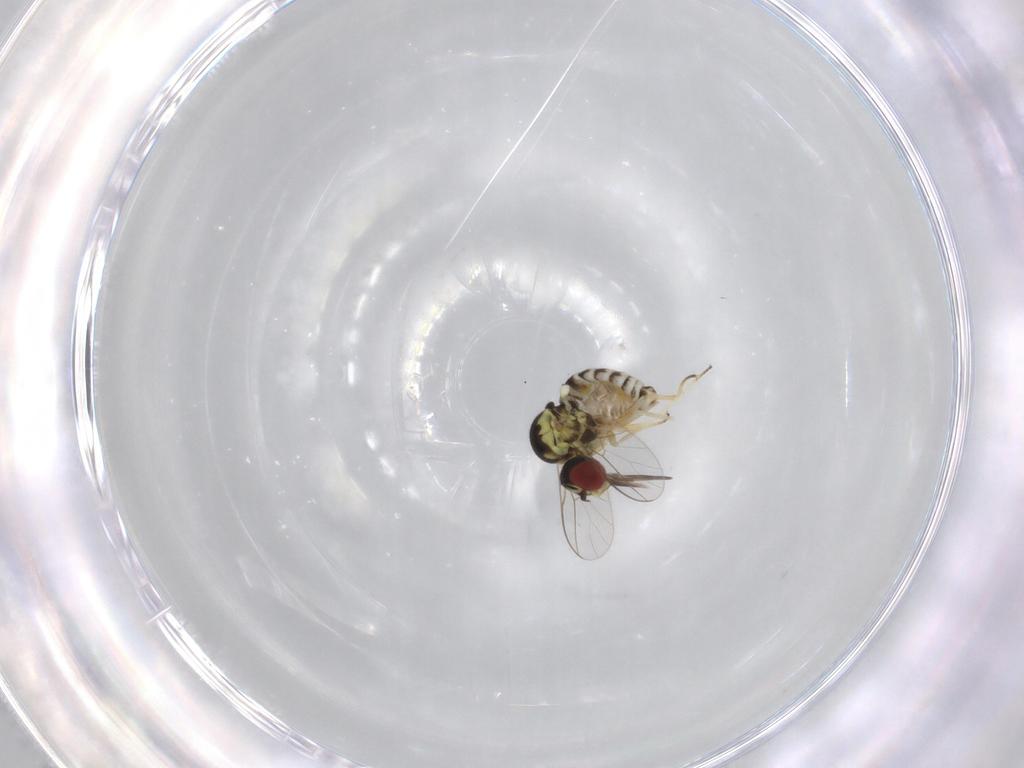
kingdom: Animalia
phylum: Arthropoda
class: Insecta
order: Diptera
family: Bombyliidae
